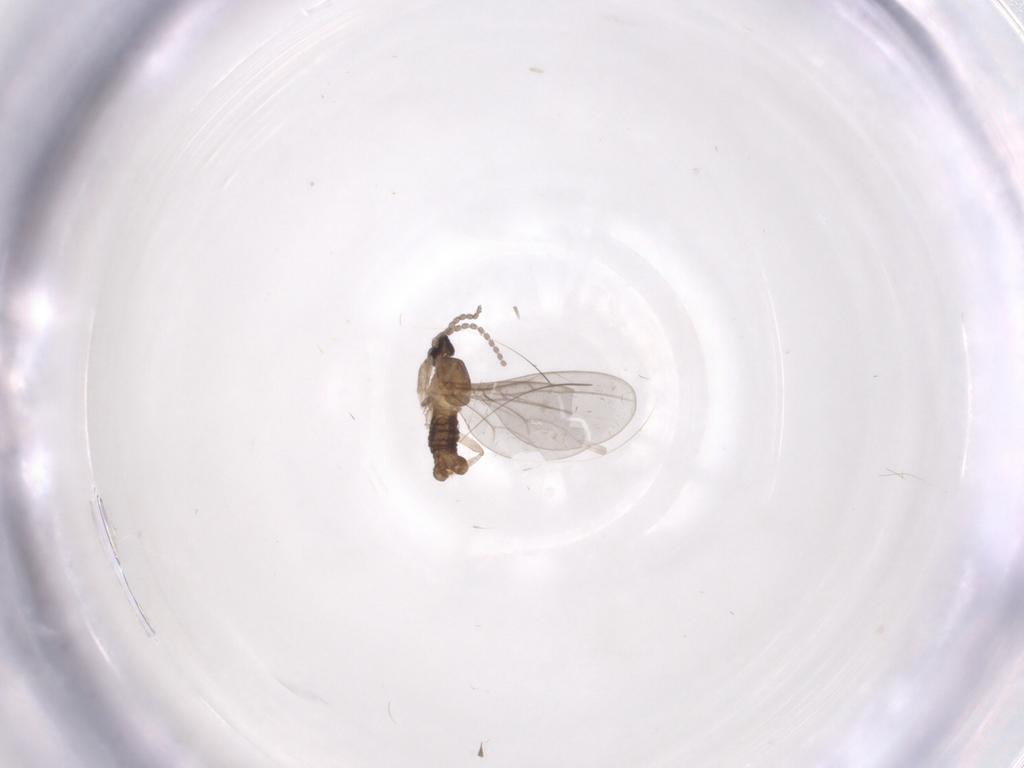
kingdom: Animalia
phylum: Arthropoda
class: Insecta
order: Diptera
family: Cecidomyiidae
